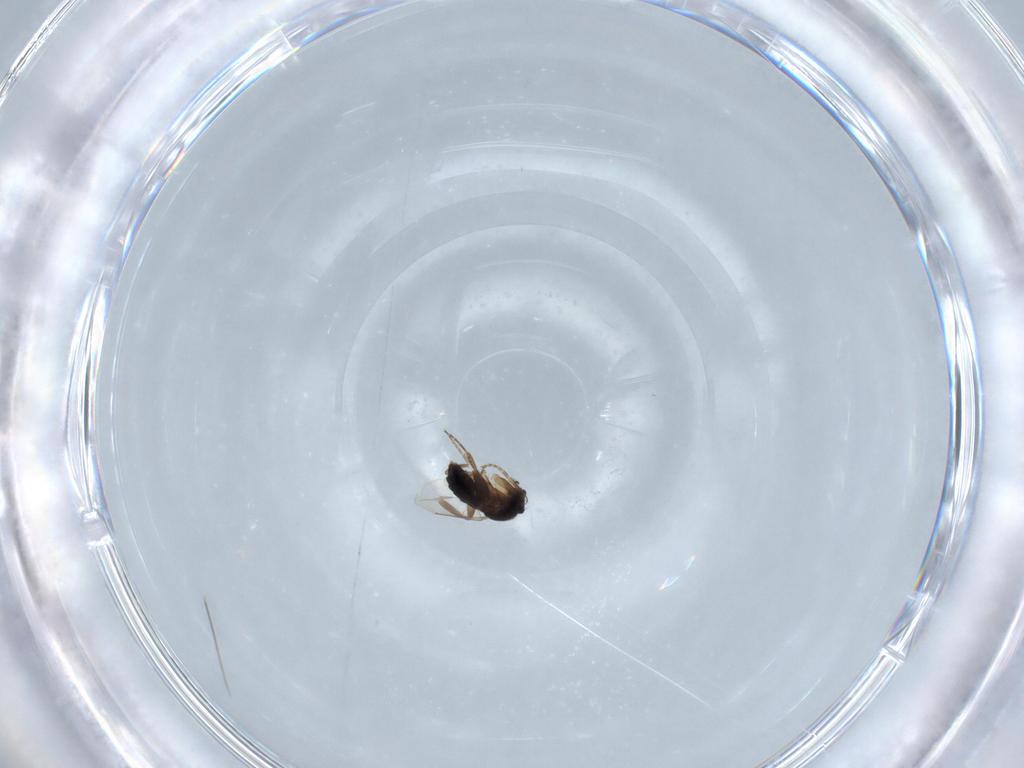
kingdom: Animalia
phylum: Arthropoda
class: Insecta
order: Diptera
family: Phoridae
